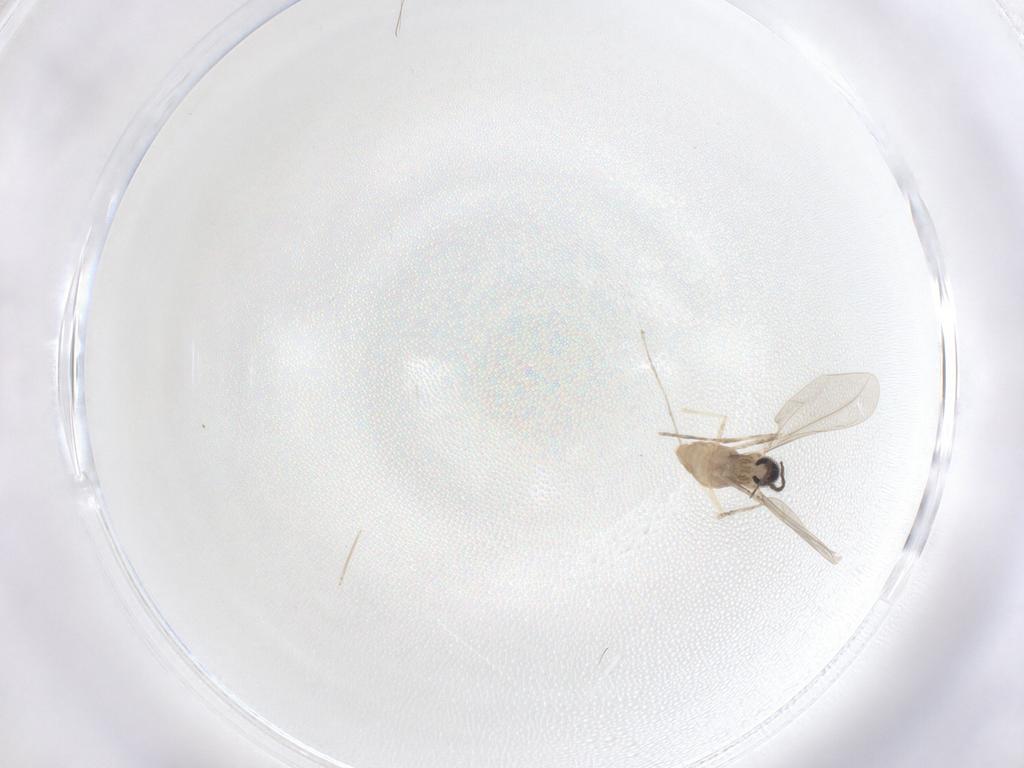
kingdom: Animalia
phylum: Arthropoda
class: Insecta
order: Diptera
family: Cecidomyiidae
